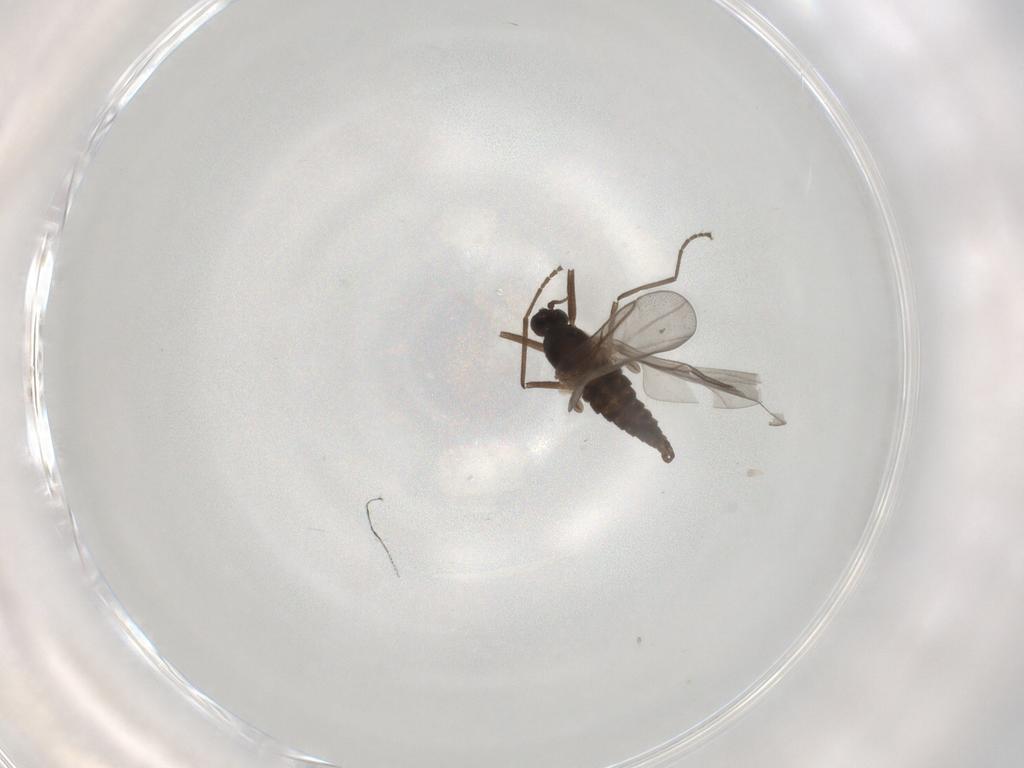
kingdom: Animalia
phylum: Arthropoda
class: Insecta
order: Diptera
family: Cecidomyiidae
